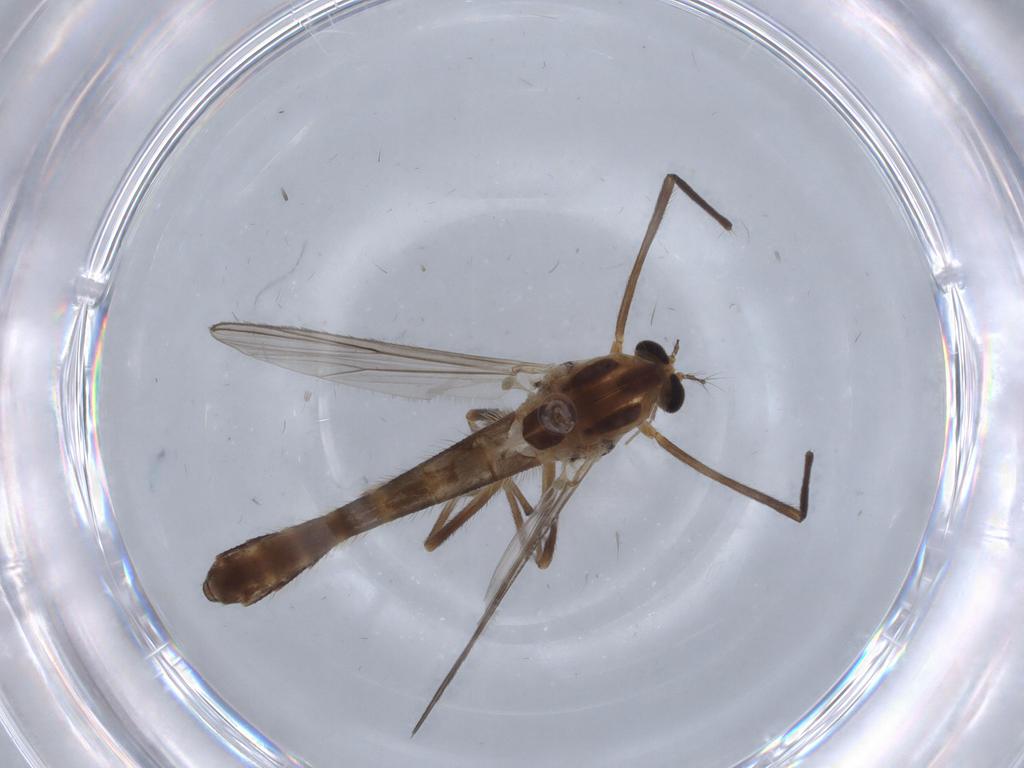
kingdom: Animalia
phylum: Arthropoda
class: Insecta
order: Diptera
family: Chironomidae
